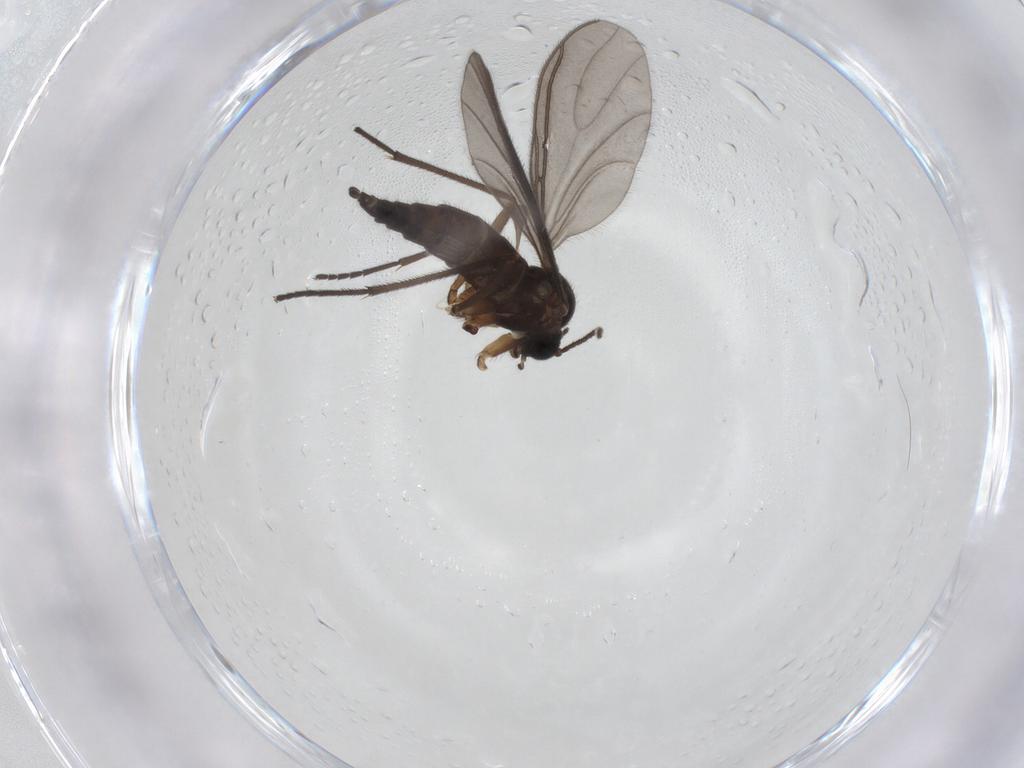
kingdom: Animalia
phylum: Arthropoda
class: Insecta
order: Diptera
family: Sciaridae
